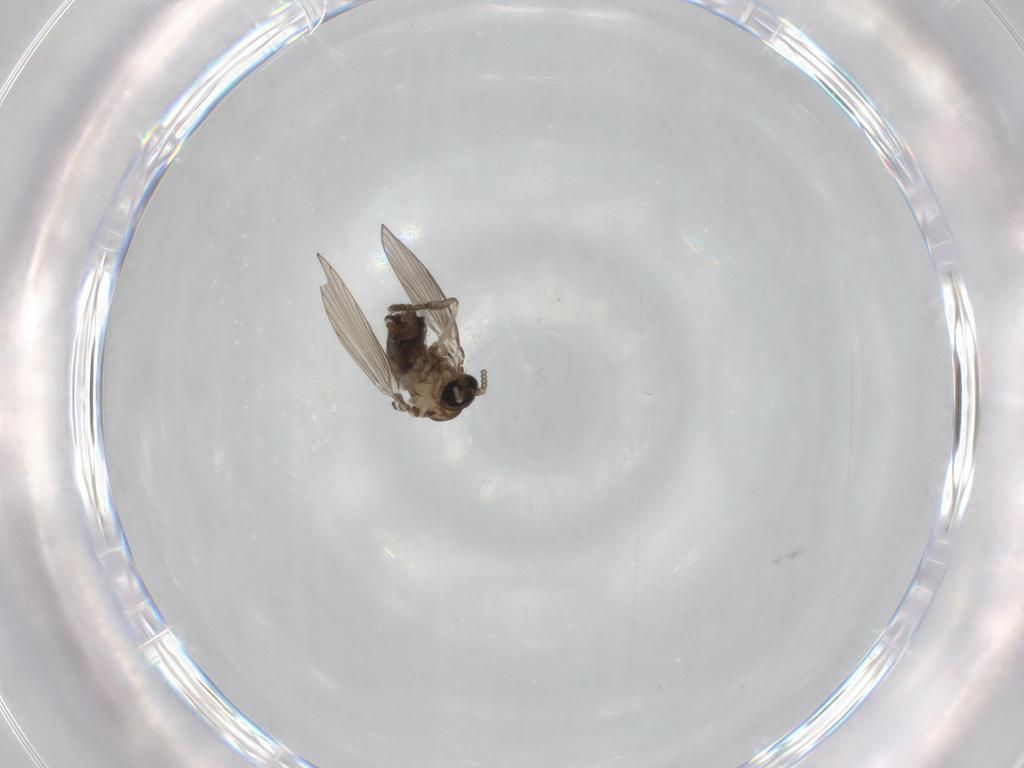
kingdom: Animalia
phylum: Arthropoda
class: Insecta
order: Diptera
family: Psychodidae
